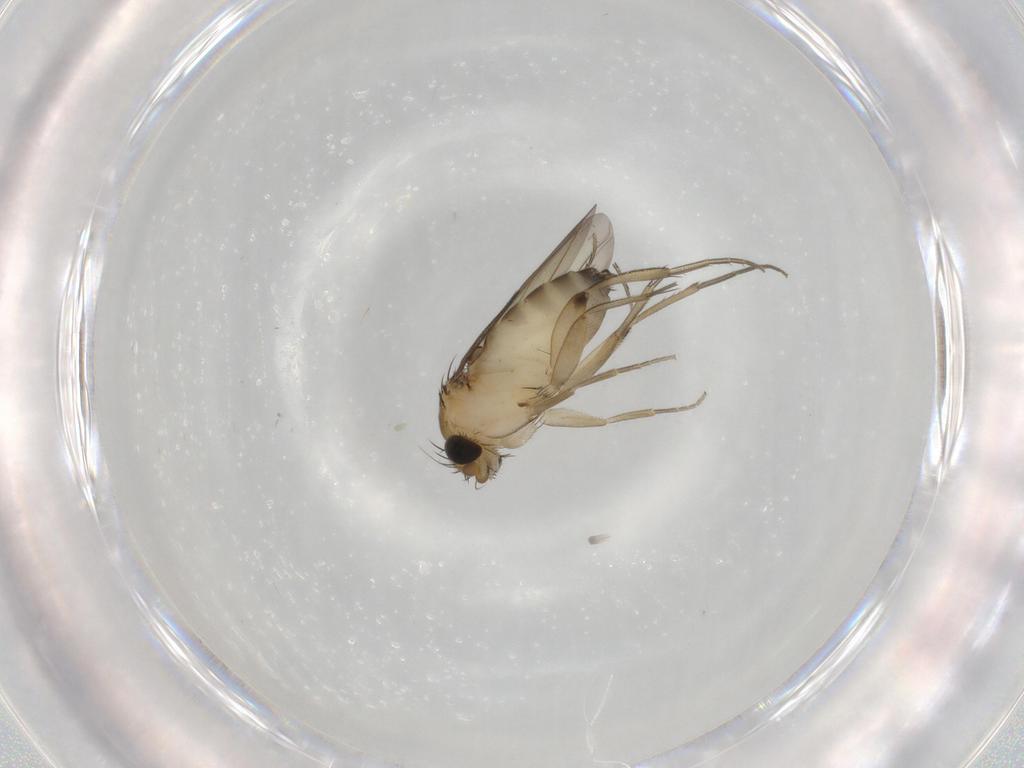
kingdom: Animalia
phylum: Arthropoda
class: Insecta
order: Diptera
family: Phoridae
